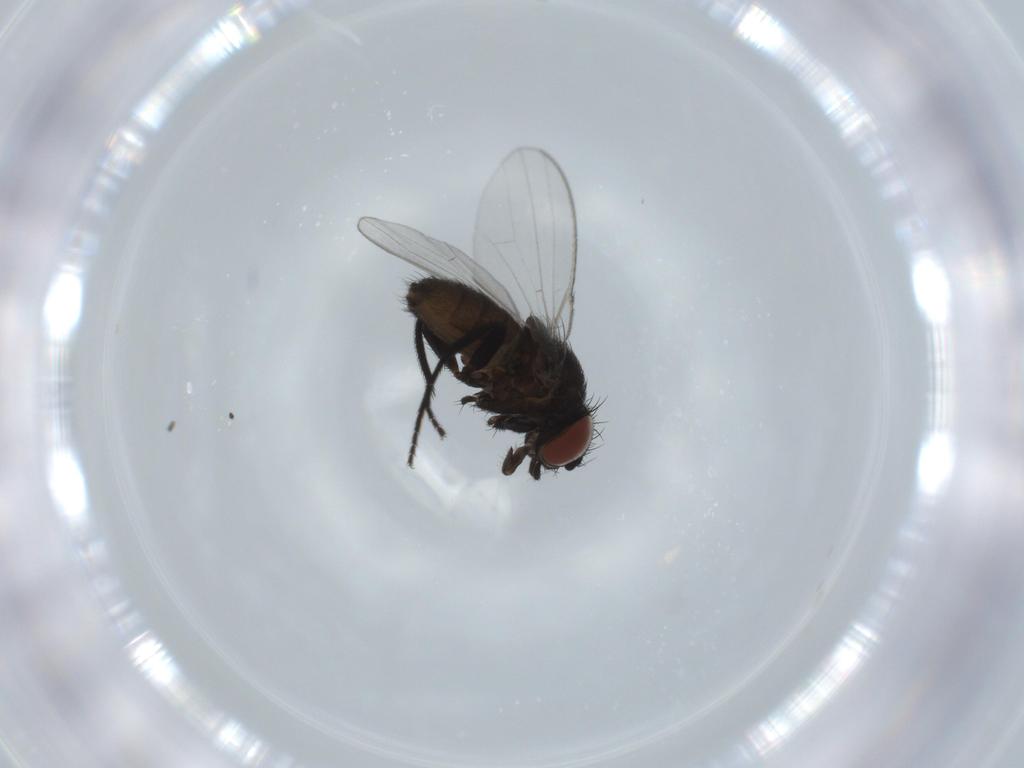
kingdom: Animalia
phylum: Arthropoda
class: Insecta
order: Diptera
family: Milichiidae
